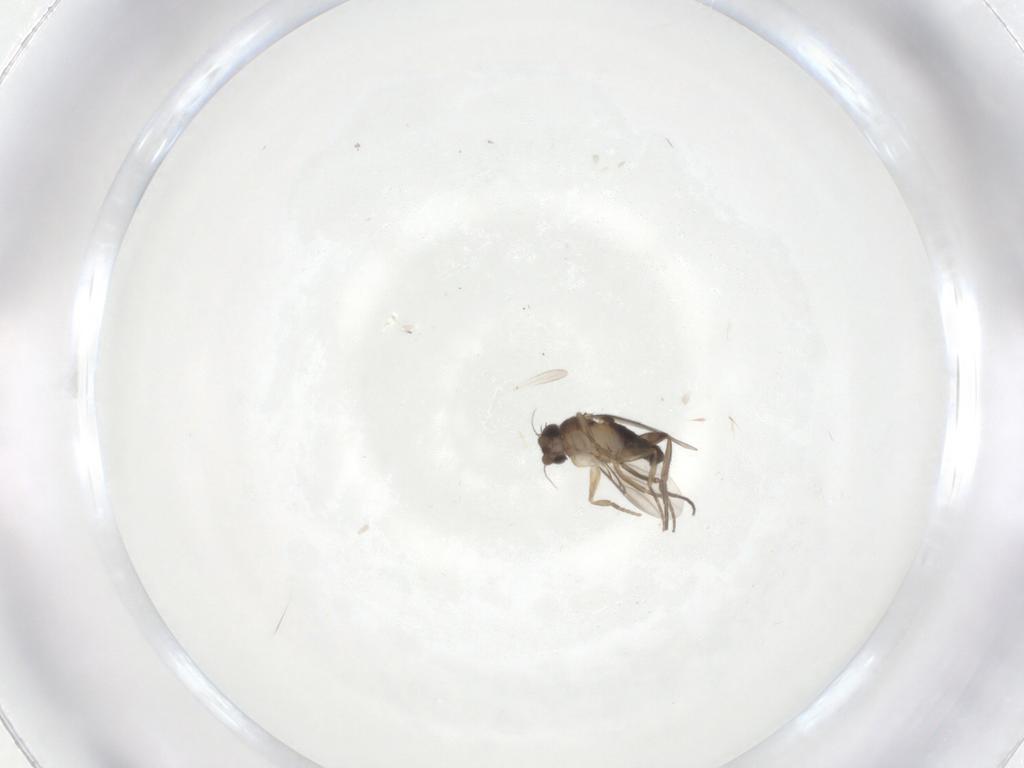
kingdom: Animalia
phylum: Arthropoda
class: Insecta
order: Diptera
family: Phoridae
